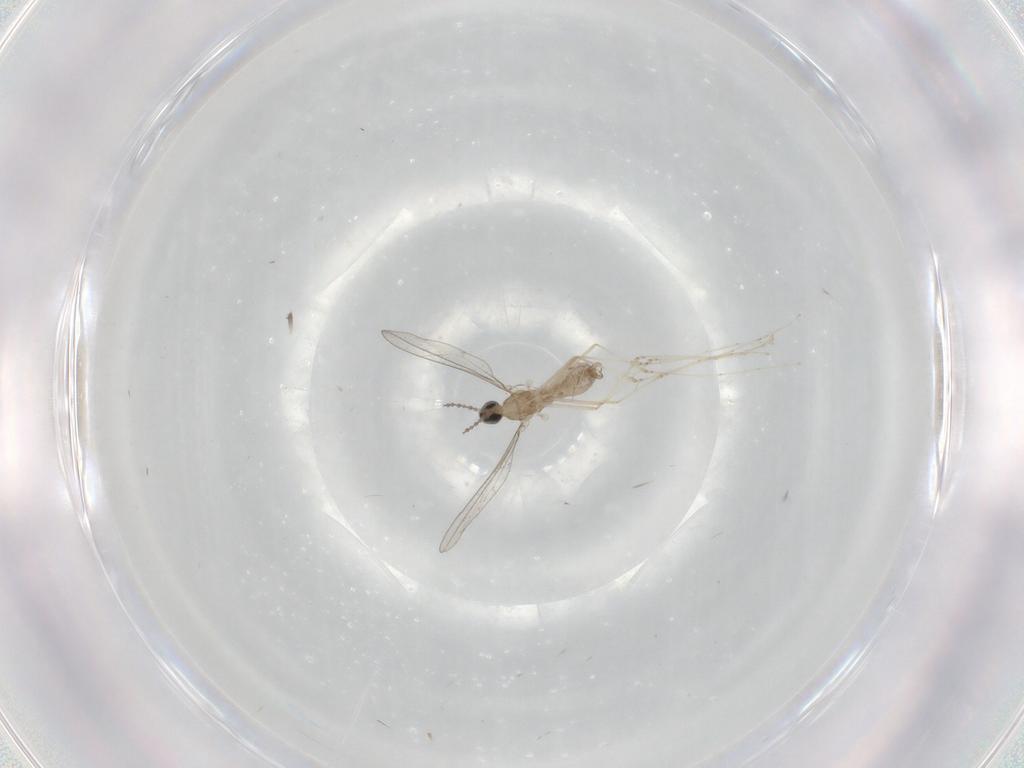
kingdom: Animalia
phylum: Arthropoda
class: Insecta
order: Diptera
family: Cecidomyiidae
